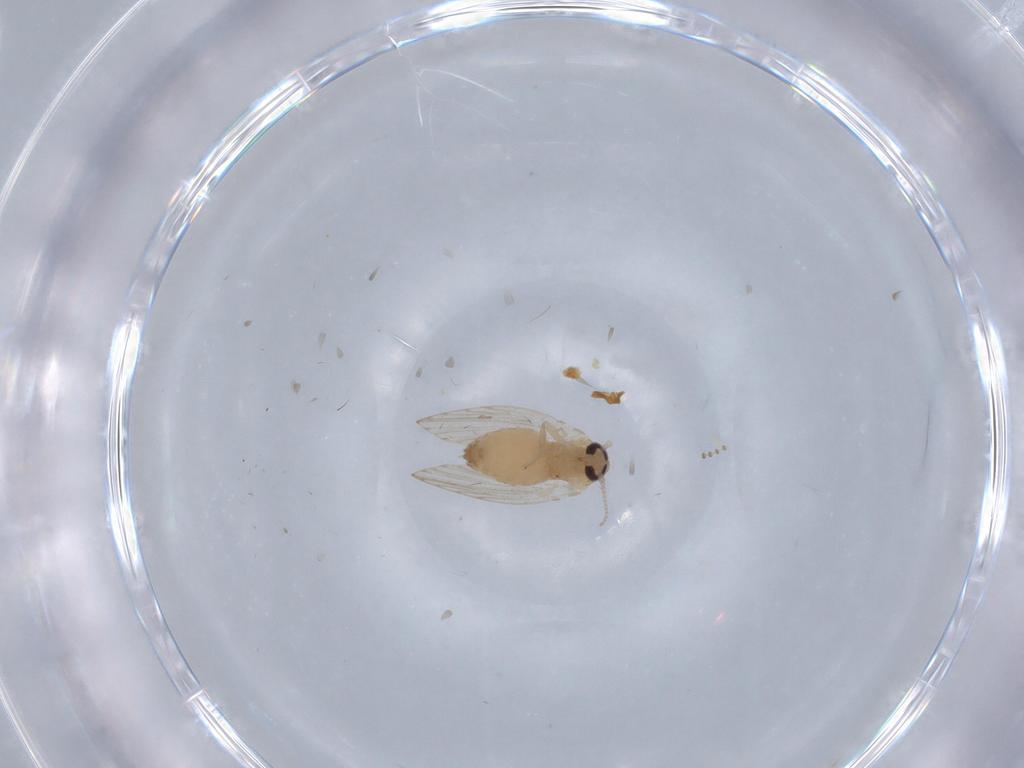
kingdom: Animalia
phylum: Arthropoda
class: Insecta
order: Diptera
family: Psychodidae
